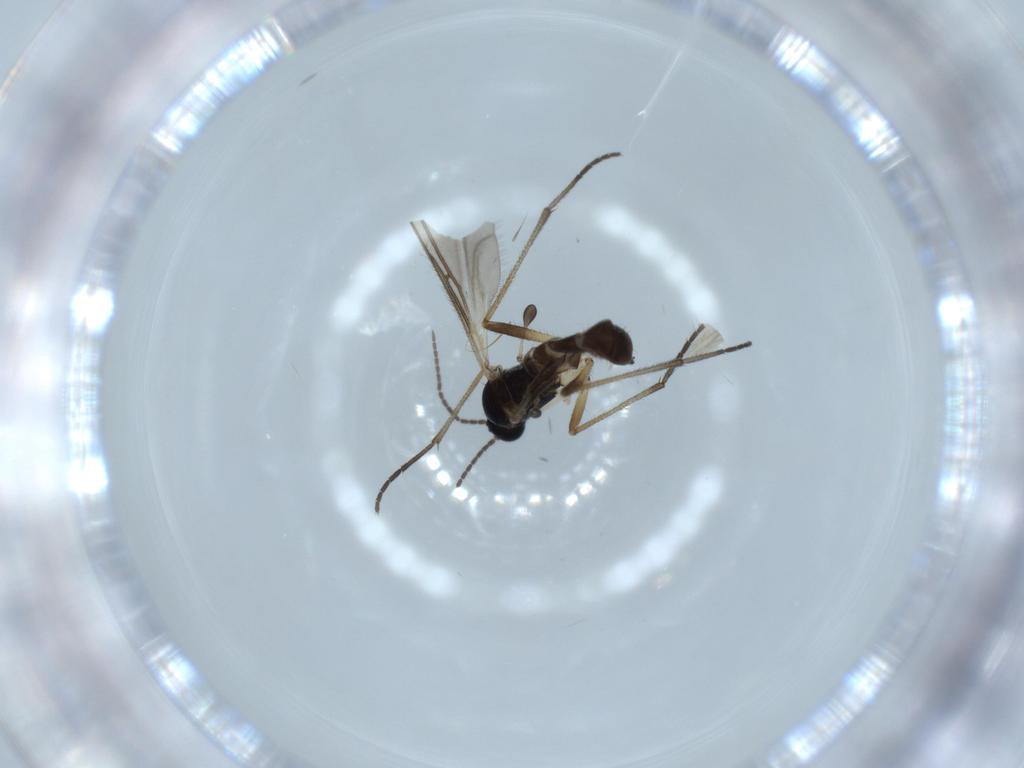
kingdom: Animalia
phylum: Arthropoda
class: Insecta
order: Diptera
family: Sciaridae
